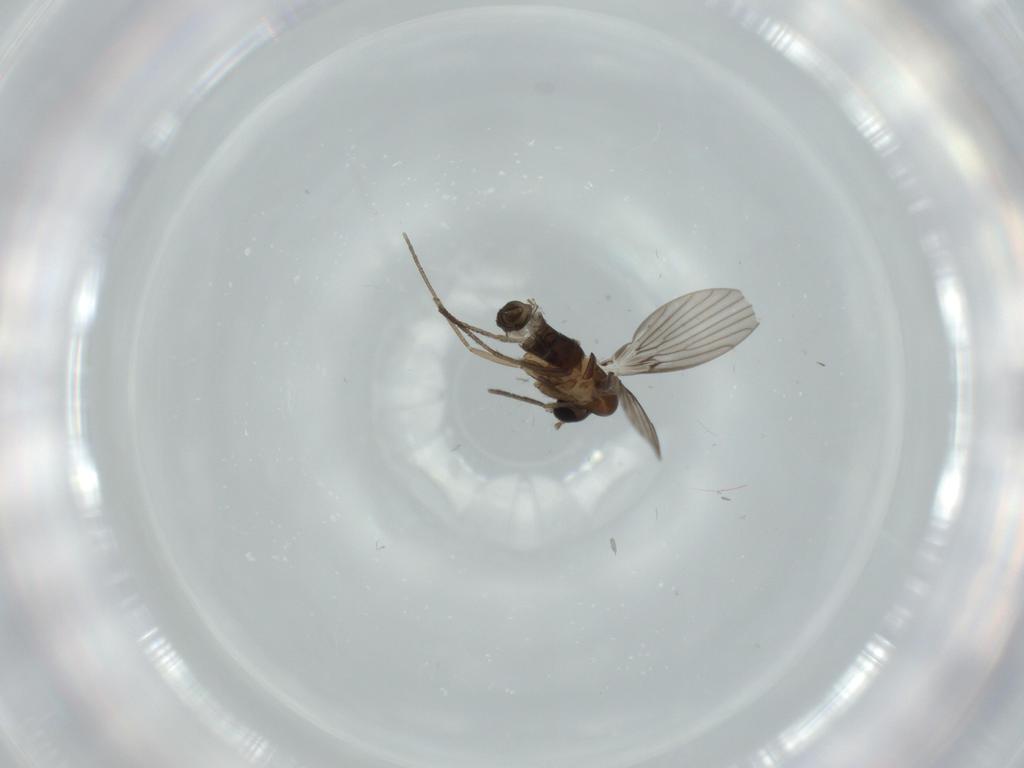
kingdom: Animalia
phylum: Arthropoda
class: Insecta
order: Diptera
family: Psychodidae
